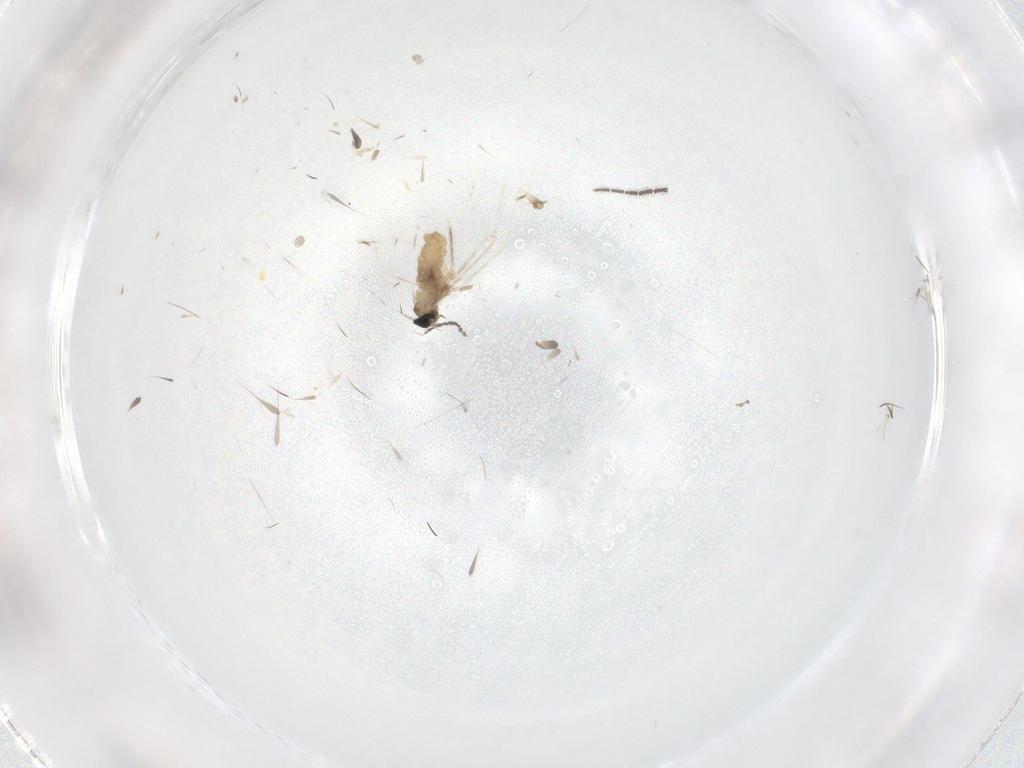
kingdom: Animalia
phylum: Arthropoda
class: Insecta
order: Diptera
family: Sciaridae
